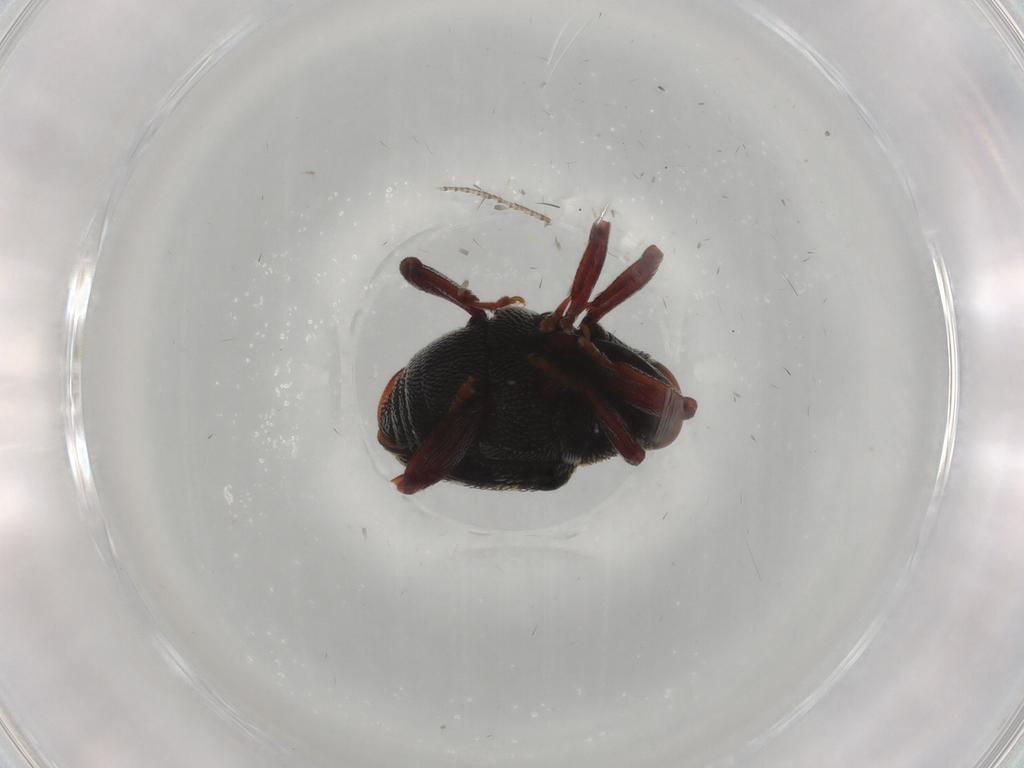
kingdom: Animalia
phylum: Arthropoda
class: Insecta
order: Coleoptera
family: Curculionidae
